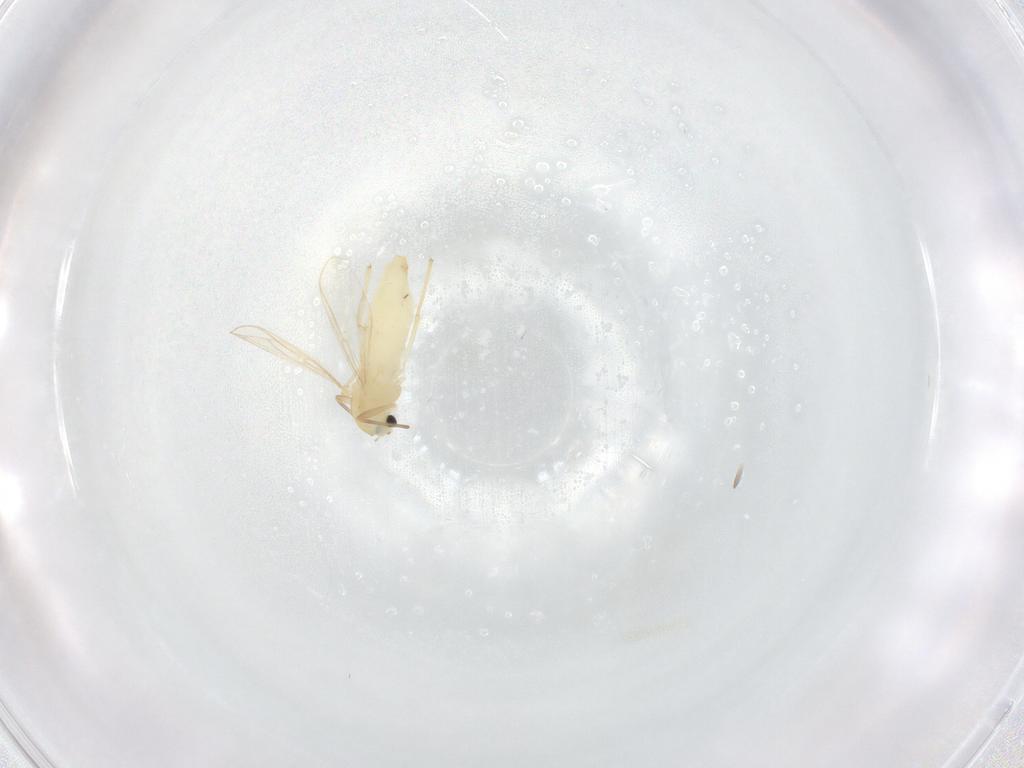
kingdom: Animalia
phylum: Arthropoda
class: Insecta
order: Diptera
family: Chironomidae
